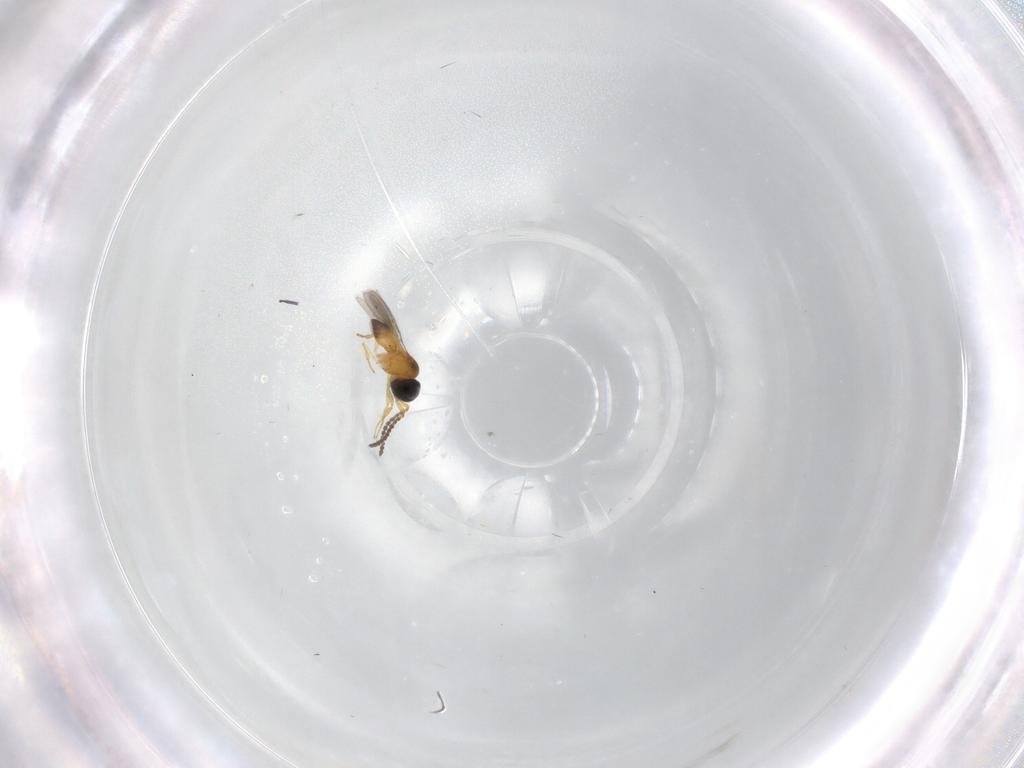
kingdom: Animalia
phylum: Arthropoda
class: Insecta
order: Hymenoptera
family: Scelionidae
